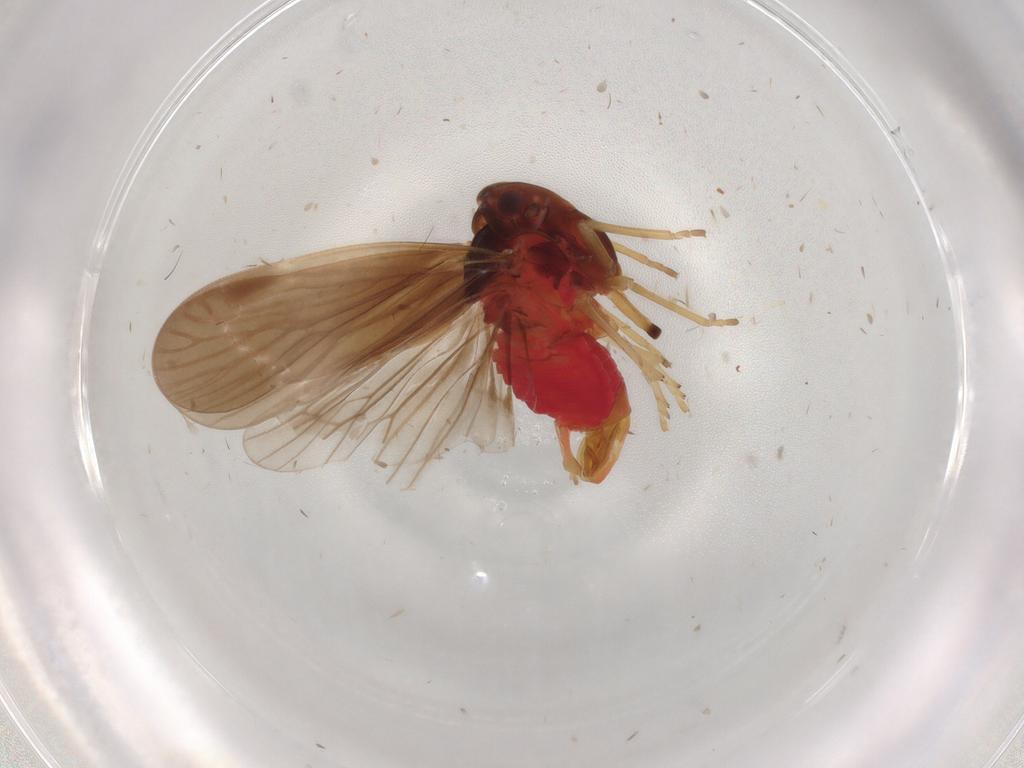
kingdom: Animalia
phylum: Arthropoda
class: Insecta
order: Hemiptera
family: Derbidae
